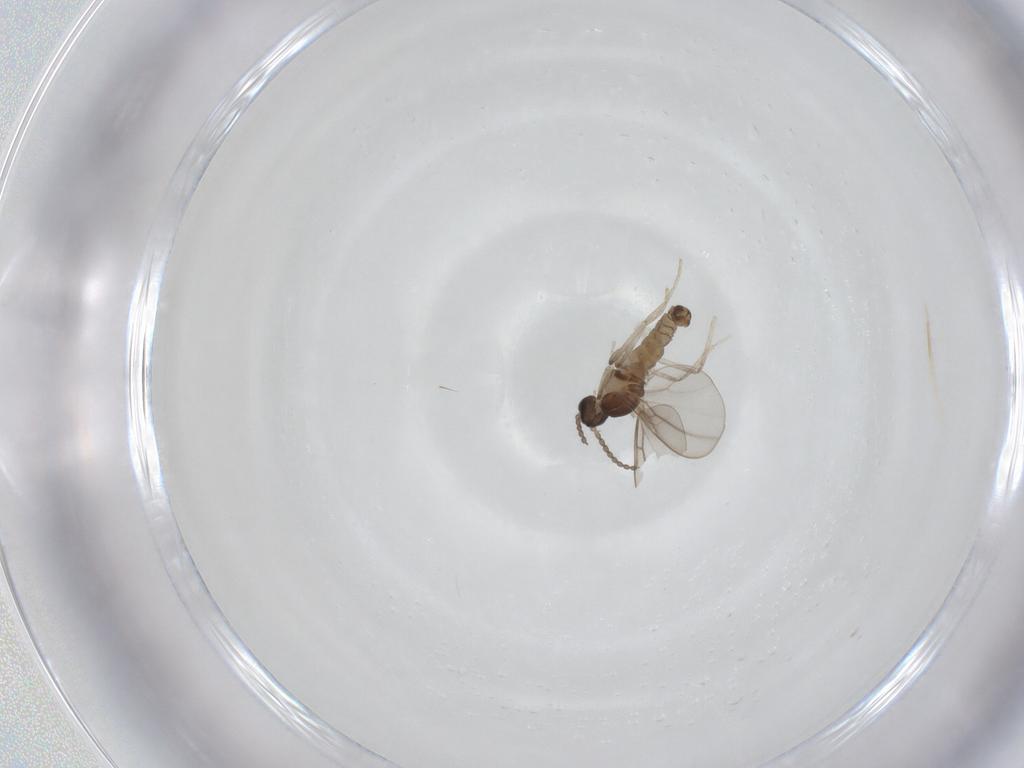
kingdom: Animalia
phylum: Arthropoda
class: Insecta
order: Diptera
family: Cecidomyiidae
